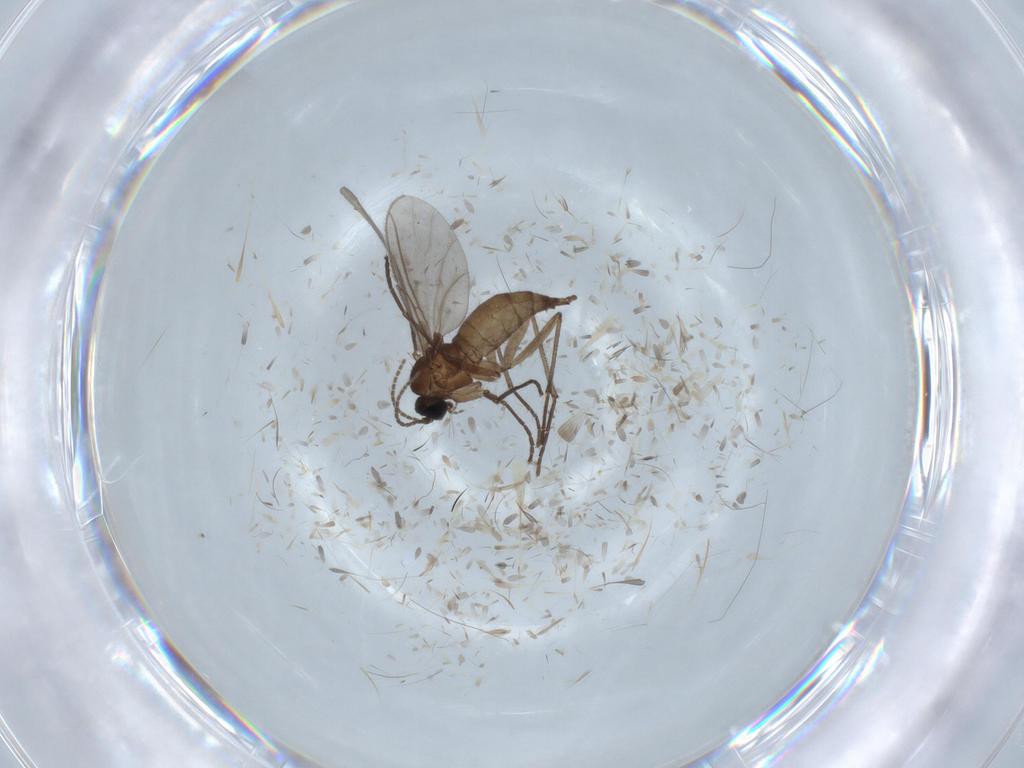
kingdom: Animalia
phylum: Arthropoda
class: Insecta
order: Diptera
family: Sciaridae
